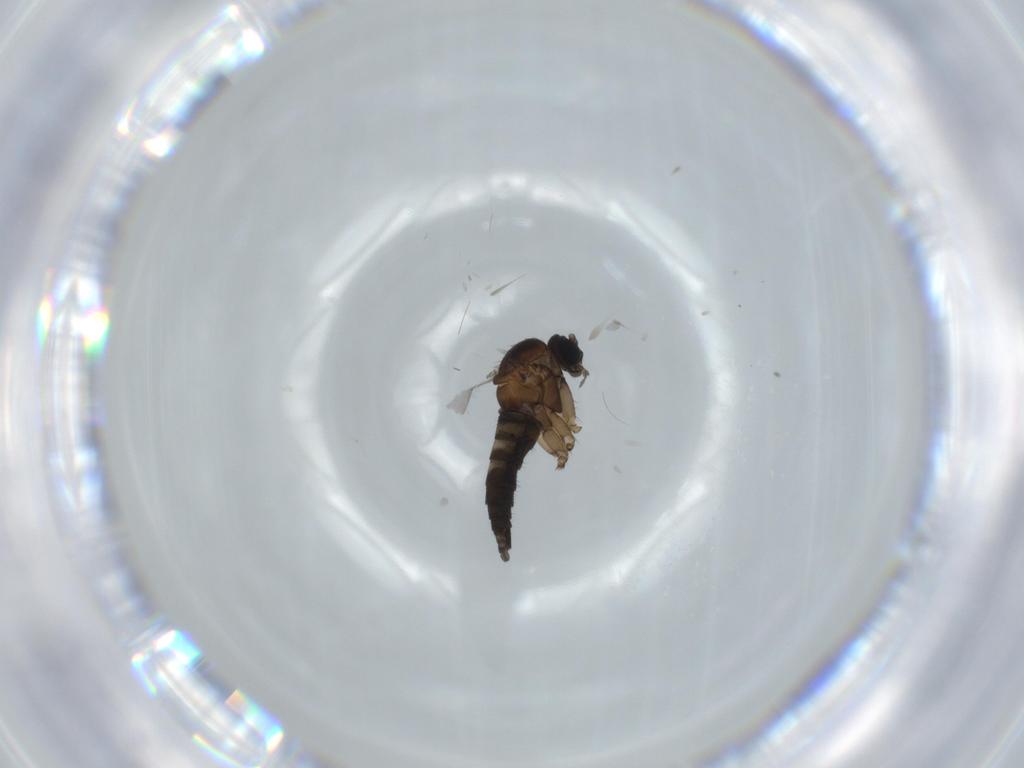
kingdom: Animalia
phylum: Arthropoda
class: Insecta
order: Diptera
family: Sciaridae
